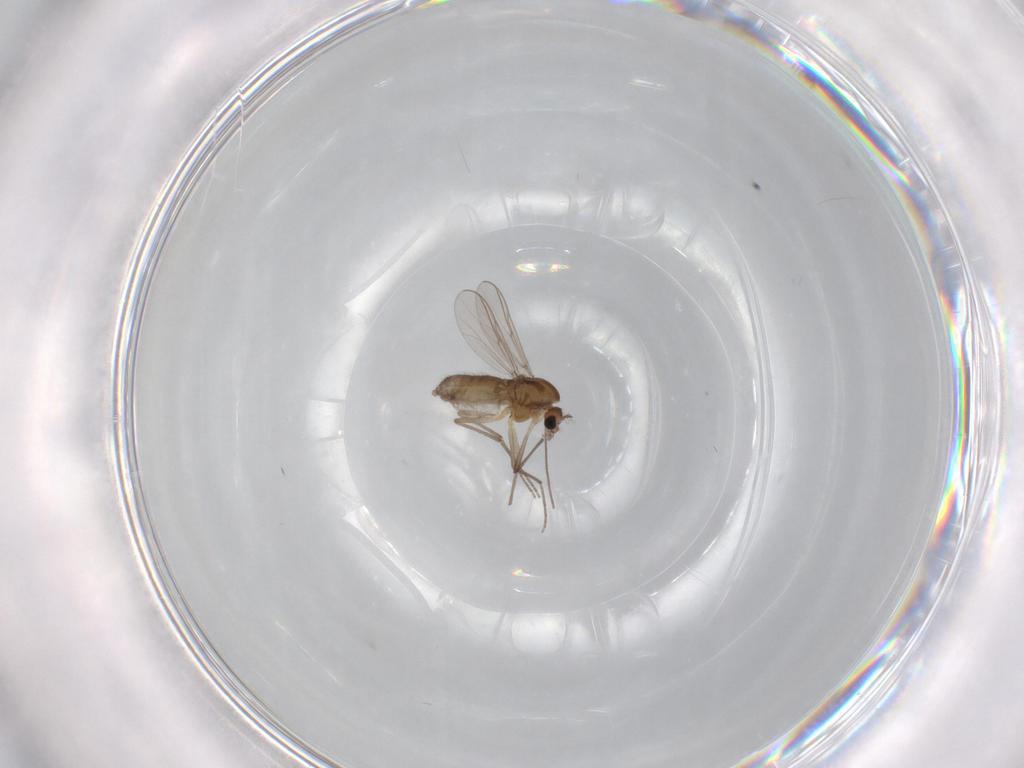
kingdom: Animalia
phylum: Arthropoda
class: Insecta
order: Diptera
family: Chironomidae
